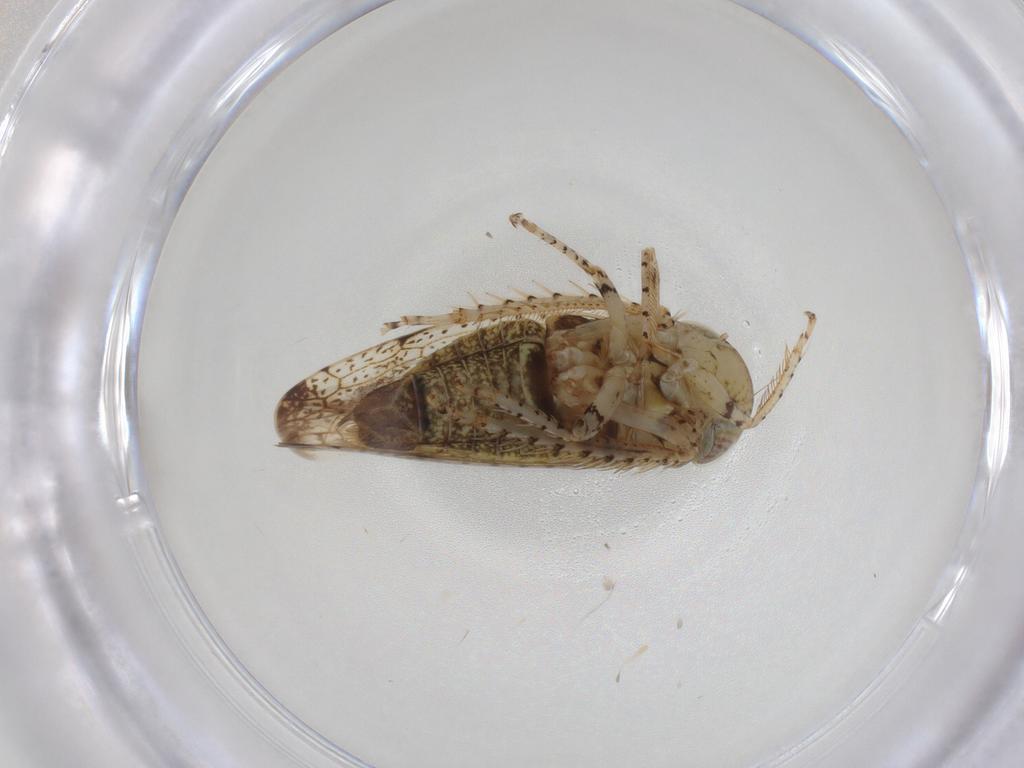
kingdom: Animalia
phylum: Arthropoda
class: Insecta
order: Hemiptera
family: Cicadellidae
